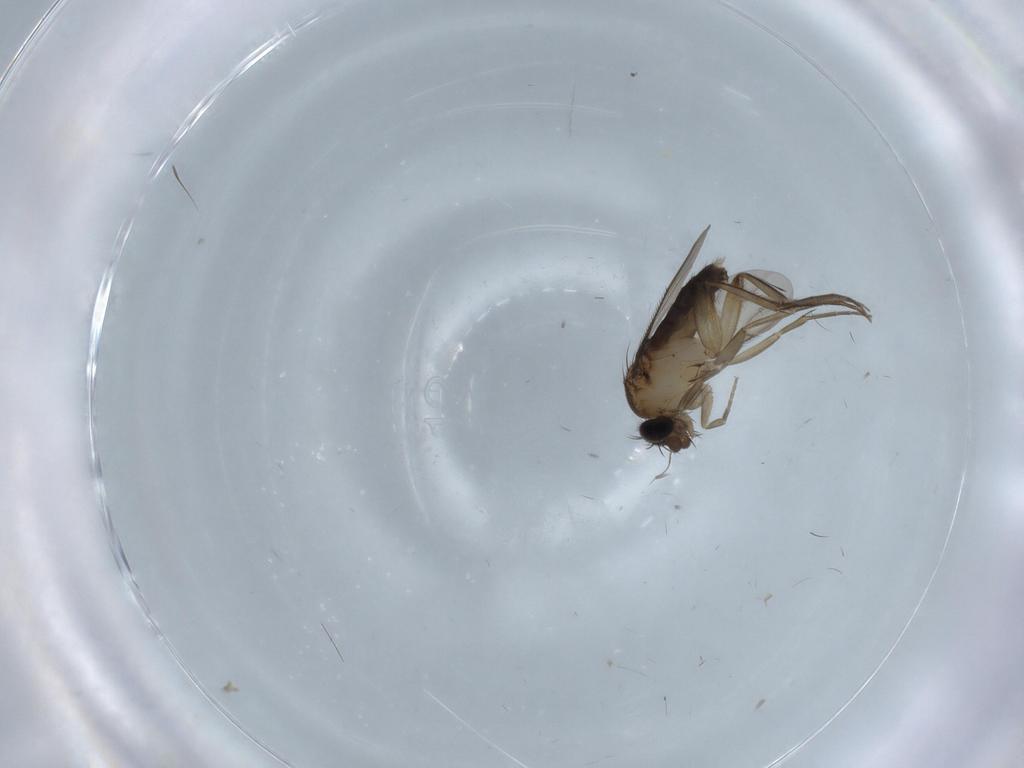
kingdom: Animalia
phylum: Arthropoda
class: Insecta
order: Diptera
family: Phoridae
